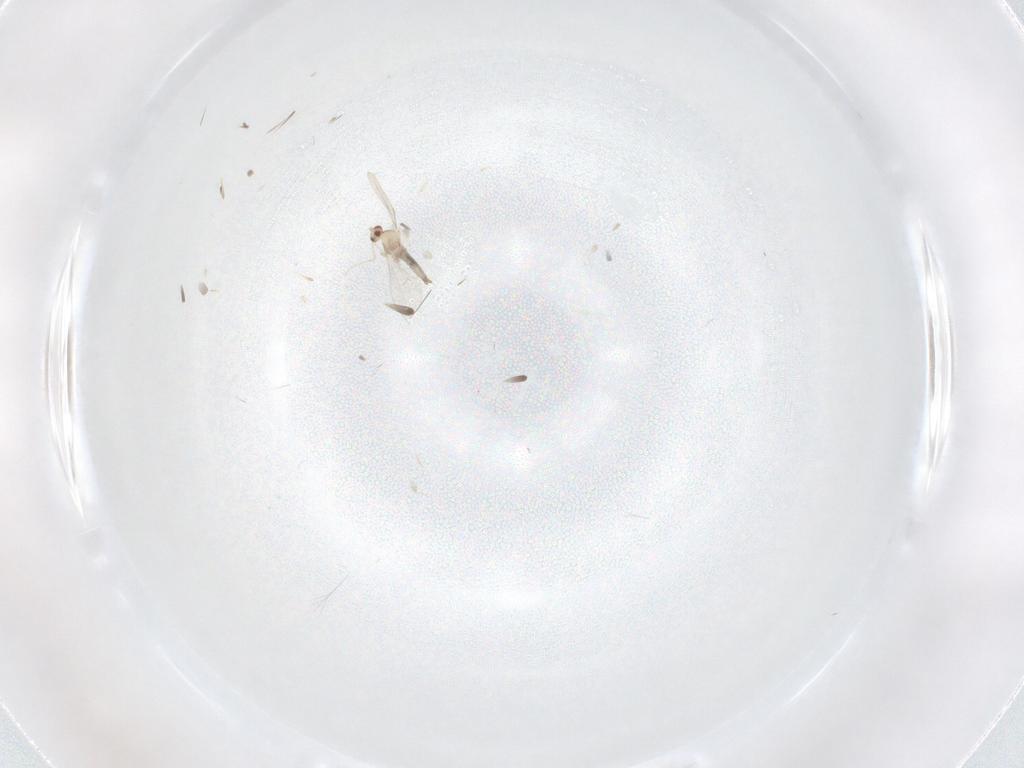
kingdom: Animalia
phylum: Arthropoda
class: Insecta
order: Diptera
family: Cecidomyiidae
